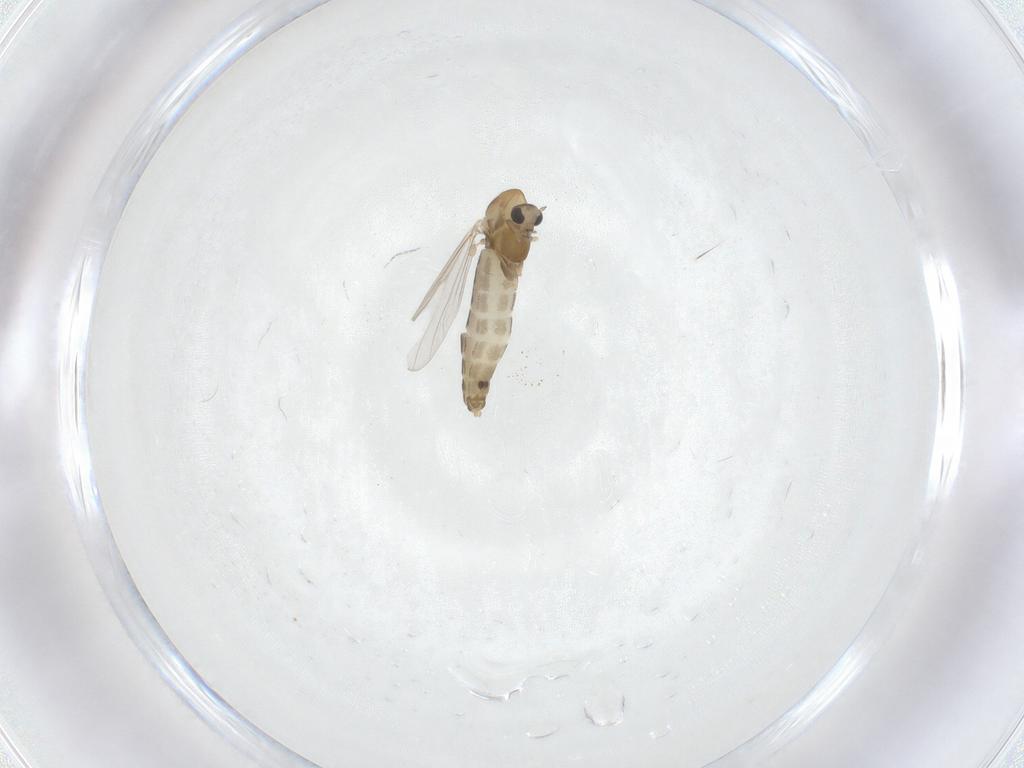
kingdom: Animalia
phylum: Arthropoda
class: Insecta
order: Diptera
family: Chironomidae
